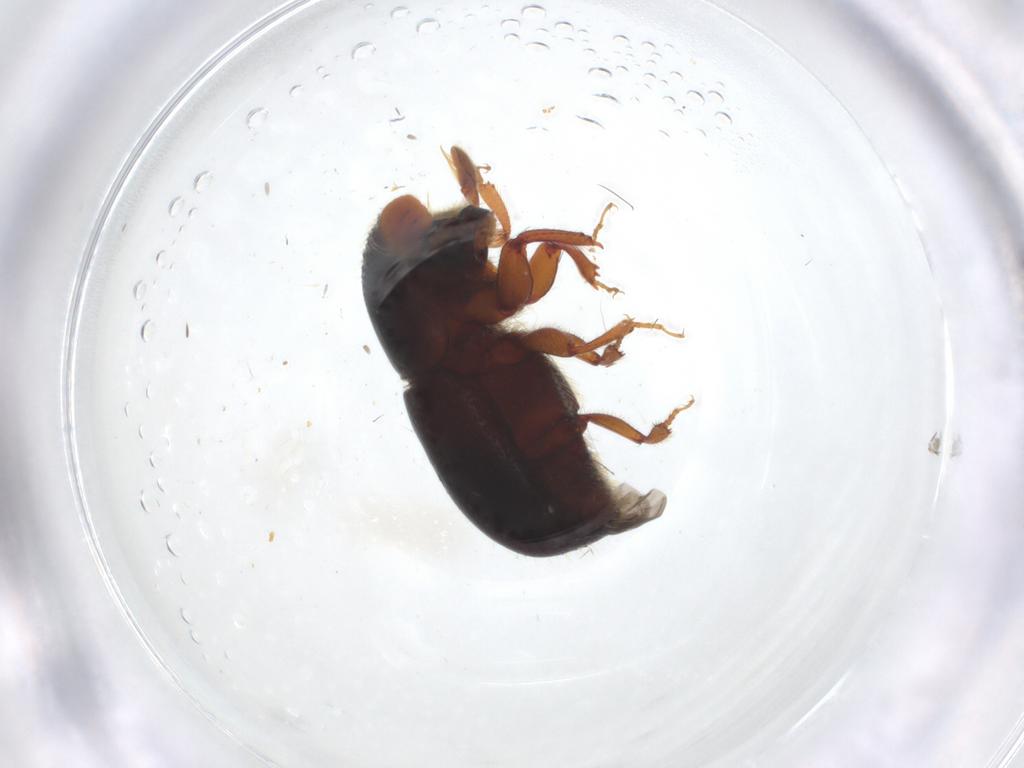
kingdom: Animalia
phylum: Arthropoda
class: Insecta
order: Coleoptera
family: Curculionidae
